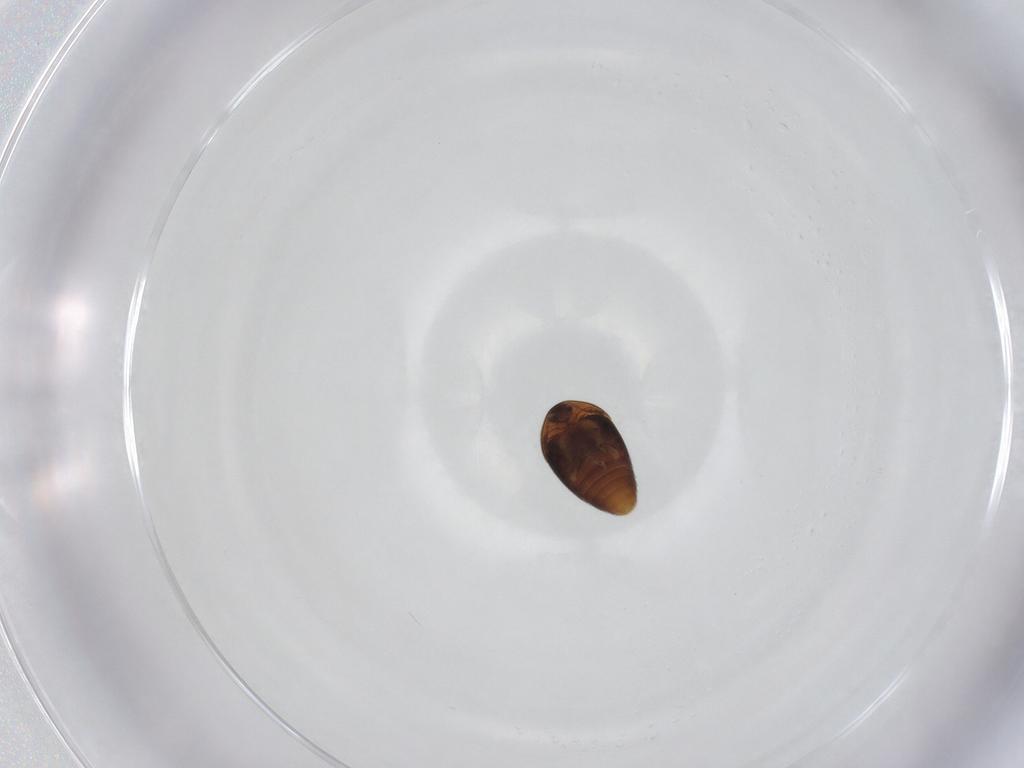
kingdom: Animalia
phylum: Arthropoda
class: Insecta
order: Coleoptera
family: Corylophidae
